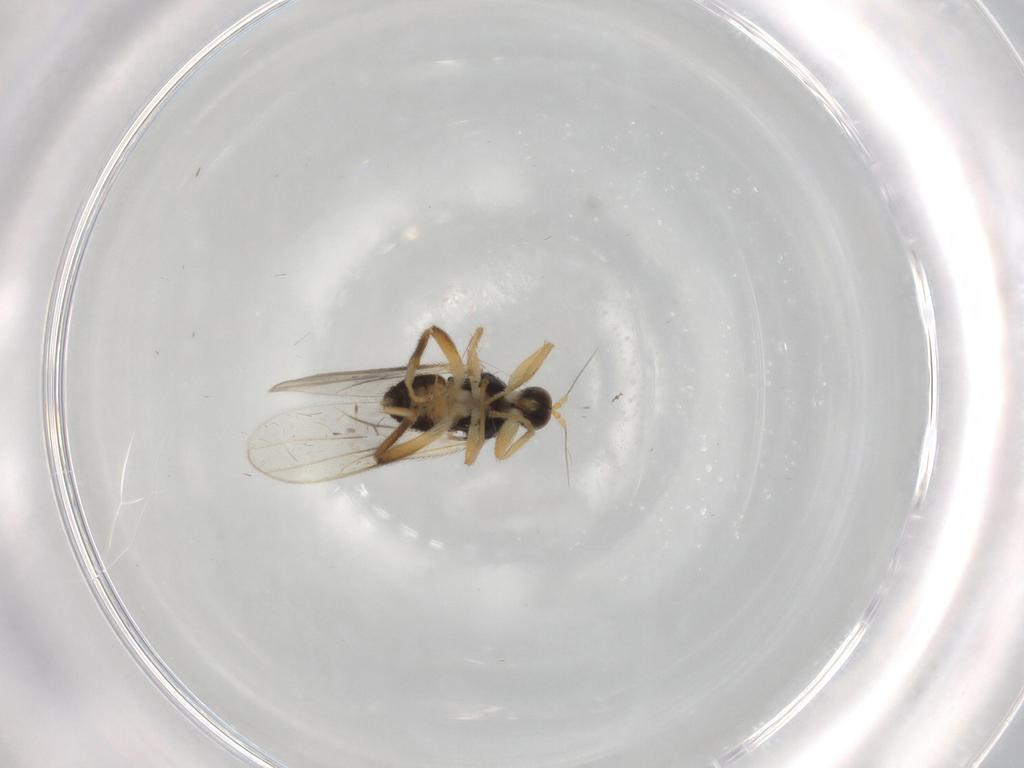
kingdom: Animalia
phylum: Arthropoda
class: Insecta
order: Diptera
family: Hybotidae
